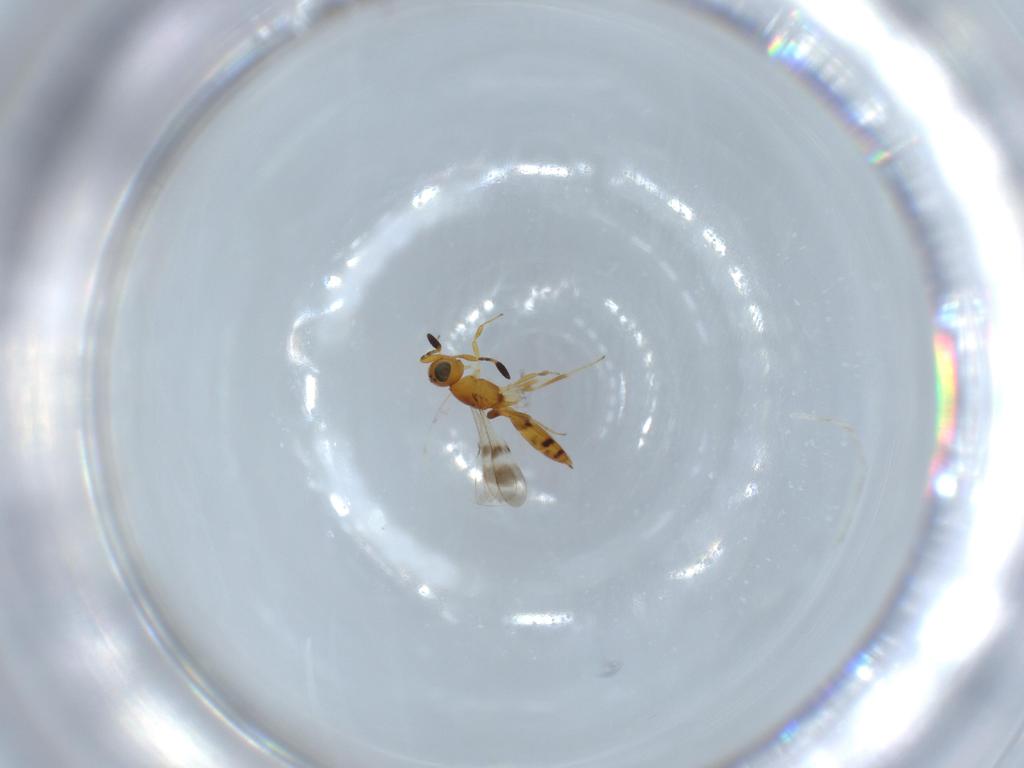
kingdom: Animalia
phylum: Arthropoda
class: Insecta
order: Hymenoptera
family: Scelionidae
